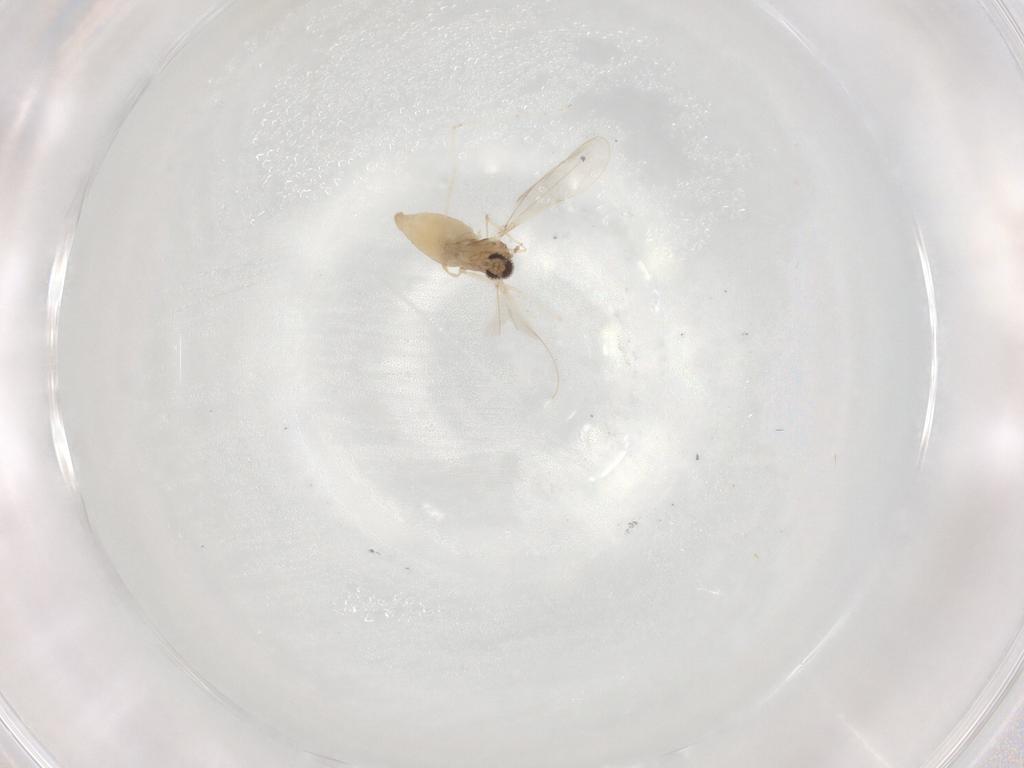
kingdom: Animalia
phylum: Arthropoda
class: Insecta
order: Diptera
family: Cecidomyiidae
